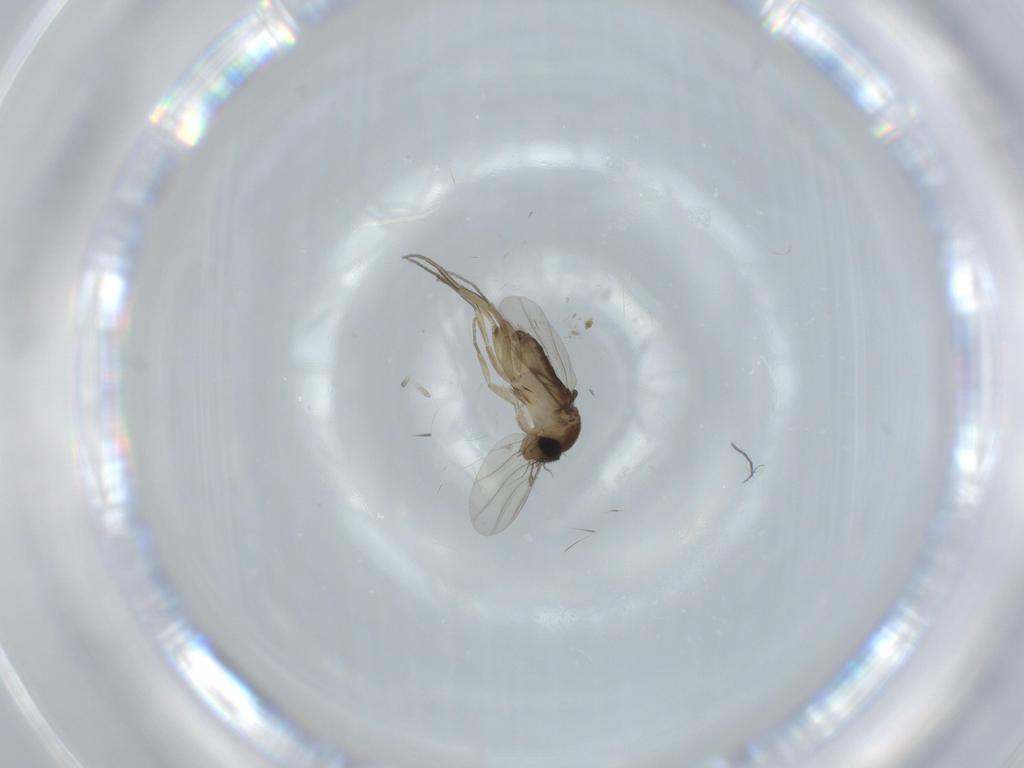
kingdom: Animalia
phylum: Arthropoda
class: Insecta
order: Diptera
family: Phoridae
